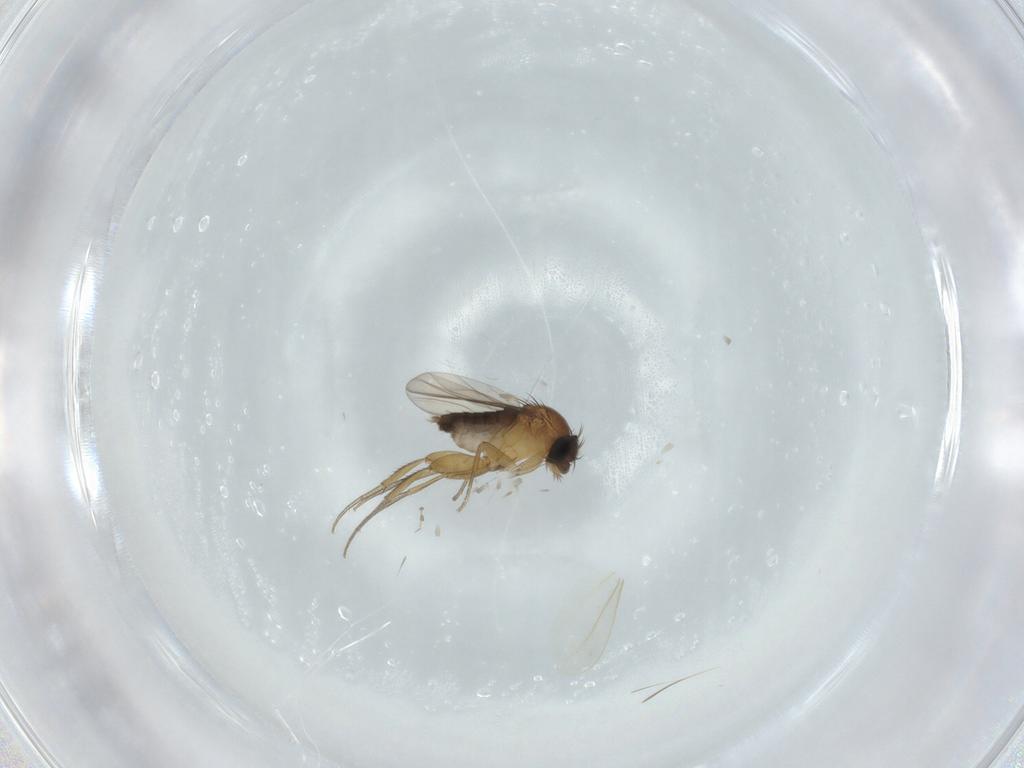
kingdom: Animalia
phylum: Arthropoda
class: Insecta
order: Diptera
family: Phoridae
